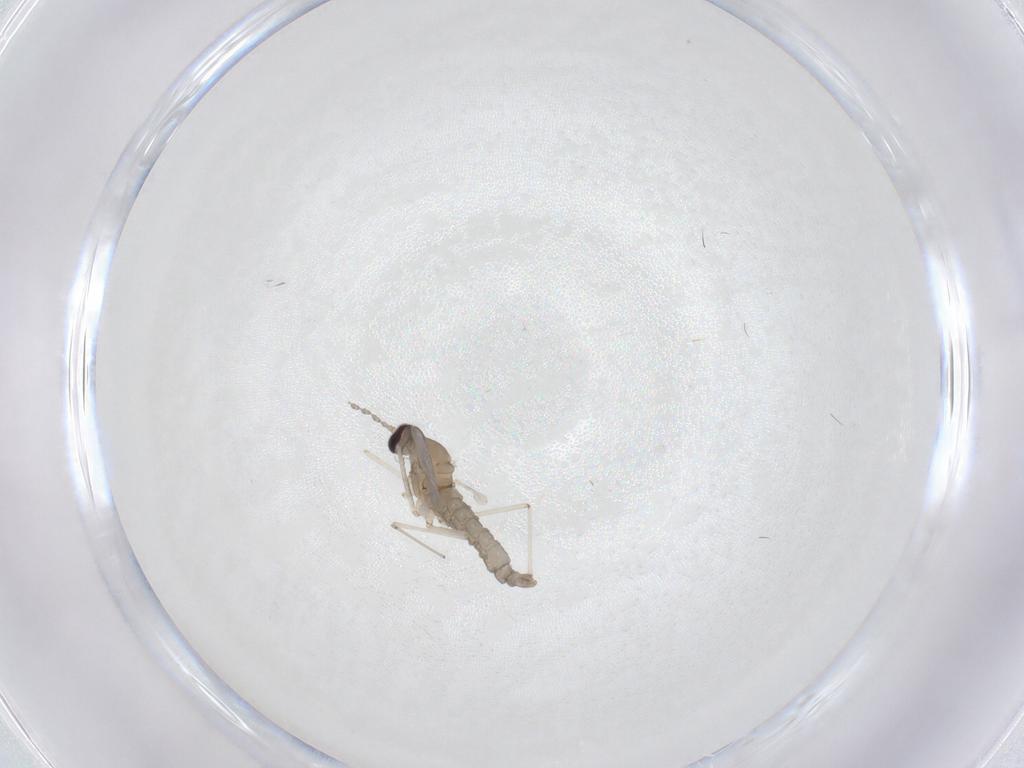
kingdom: Animalia
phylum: Arthropoda
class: Insecta
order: Diptera
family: Cecidomyiidae
